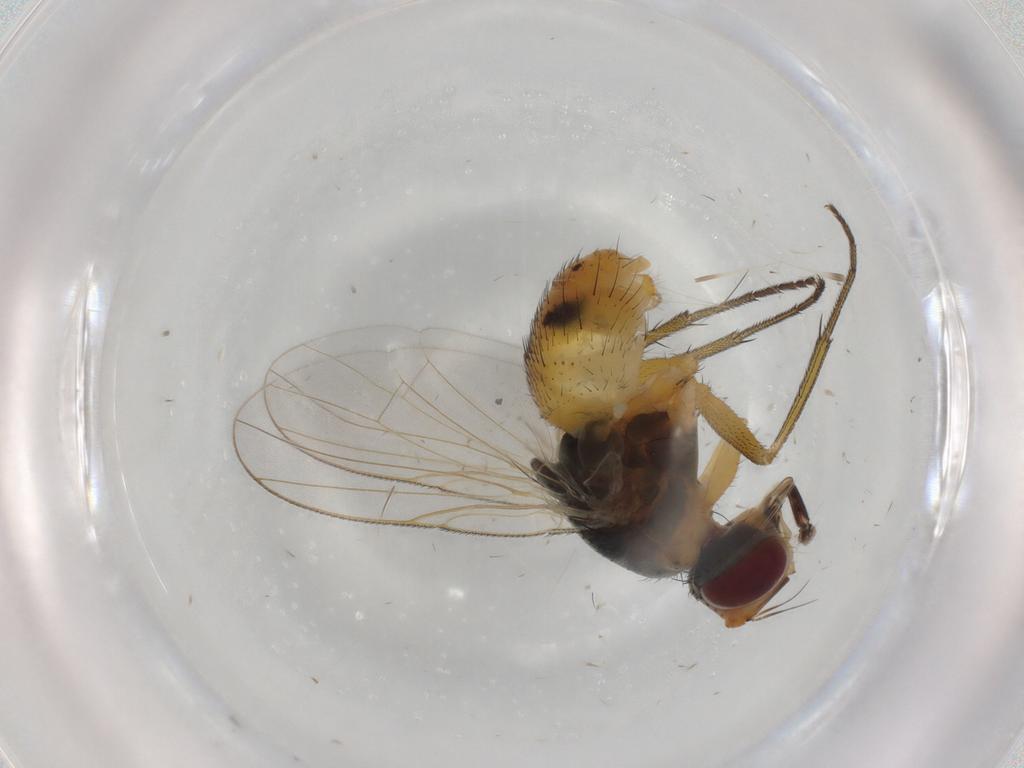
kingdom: Animalia
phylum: Arthropoda
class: Insecta
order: Diptera
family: Muscidae
